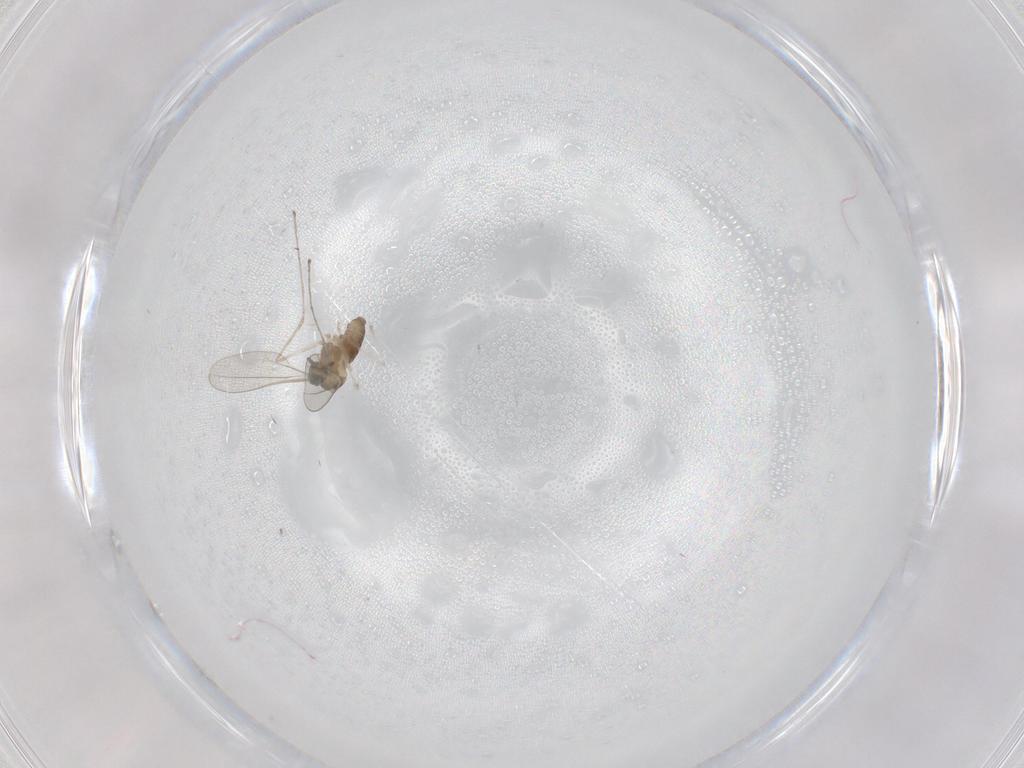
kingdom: Animalia
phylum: Arthropoda
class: Insecta
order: Diptera
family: Cecidomyiidae
